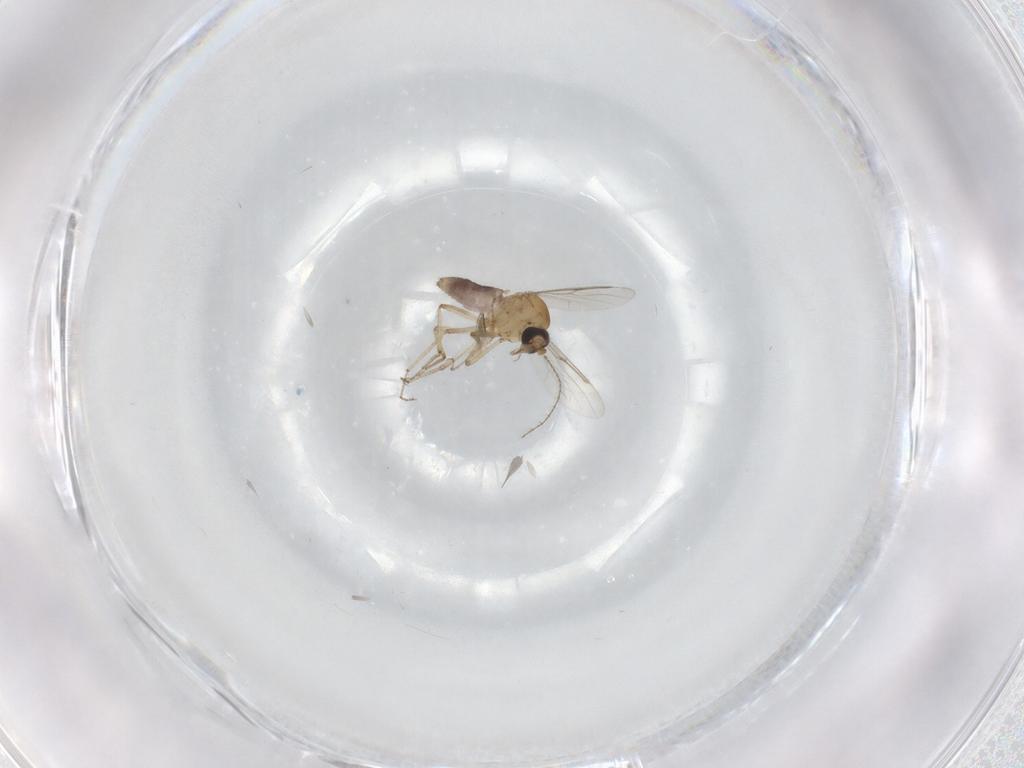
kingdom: Animalia
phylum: Arthropoda
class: Insecta
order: Diptera
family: Ceratopogonidae
